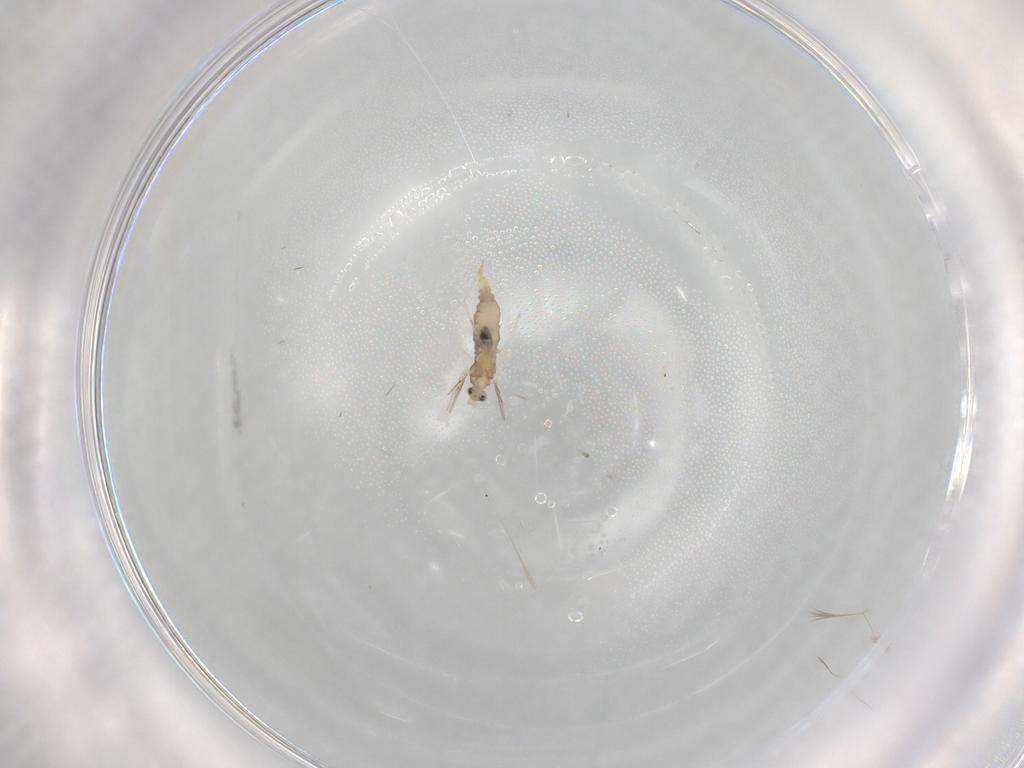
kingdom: Animalia
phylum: Arthropoda
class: Insecta
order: Diptera
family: Cecidomyiidae
